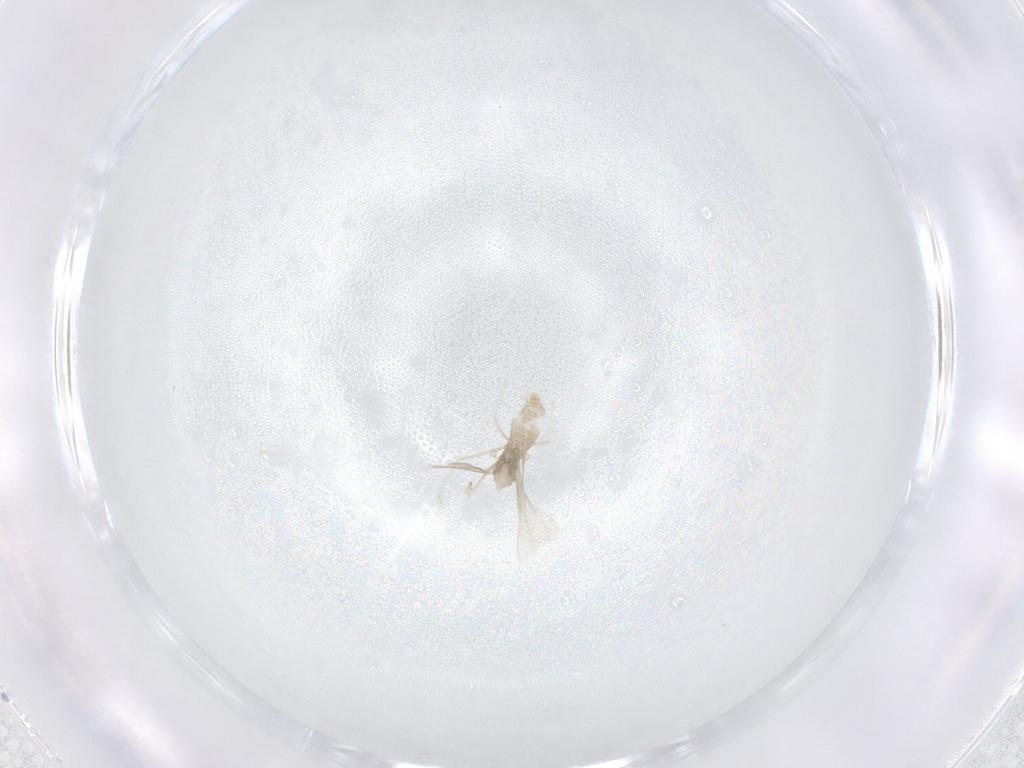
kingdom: Animalia
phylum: Arthropoda
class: Insecta
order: Diptera
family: Cecidomyiidae
